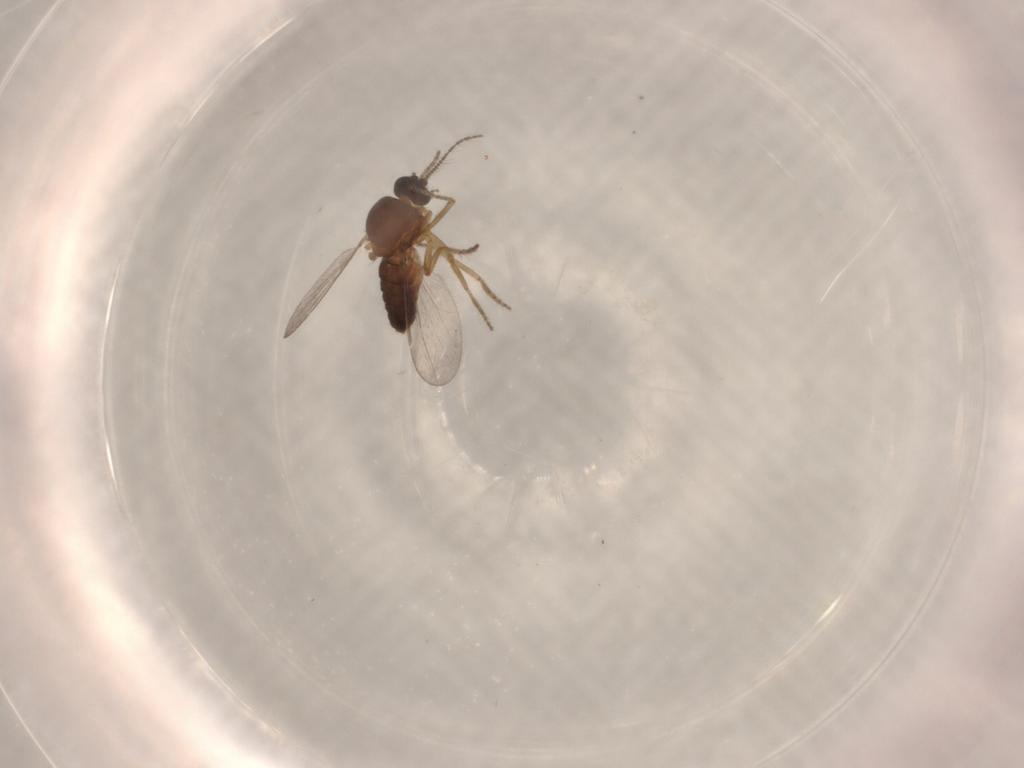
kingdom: Animalia
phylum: Arthropoda
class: Insecta
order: Diptera
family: Ceratopogonidae
